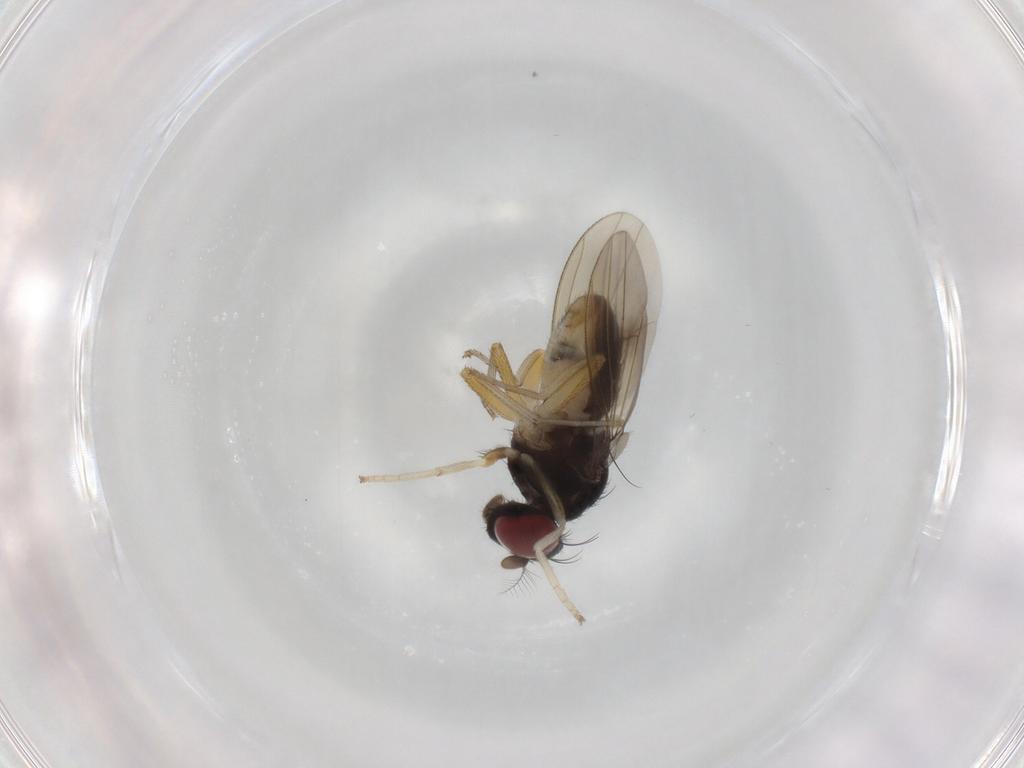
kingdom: Animalia
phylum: Arthropoda
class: Insecta
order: Diptera
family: Lauxaniidae
